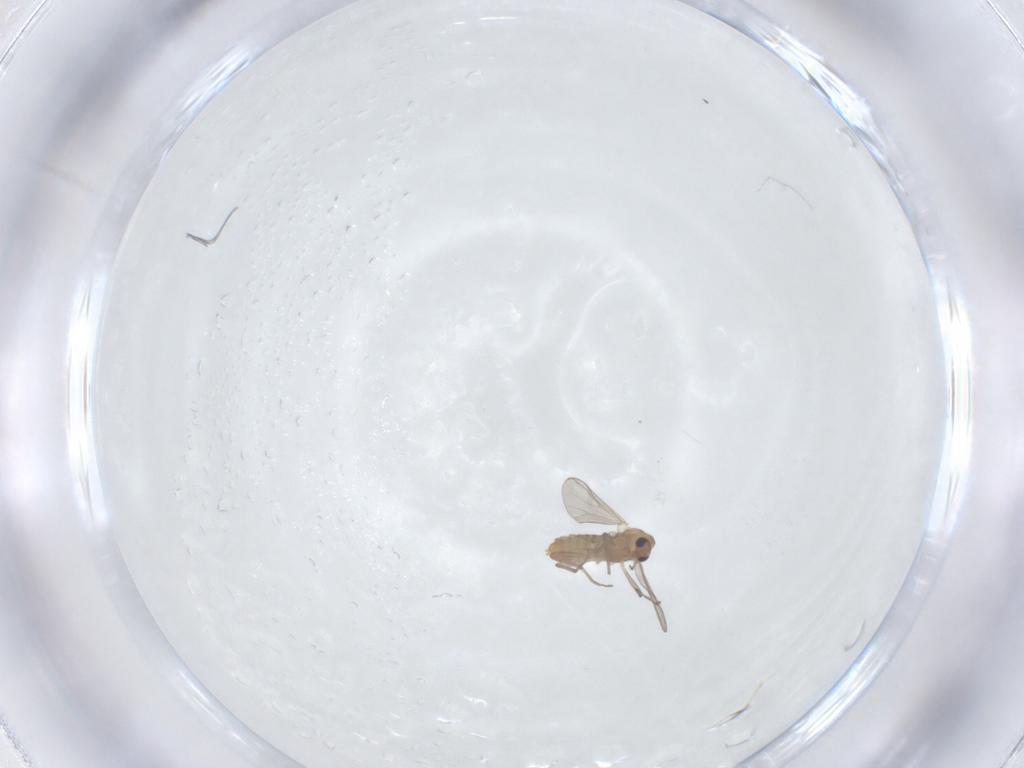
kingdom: Animalia
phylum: Arthropoda
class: Insecta
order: Diptera
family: Chironomidae
